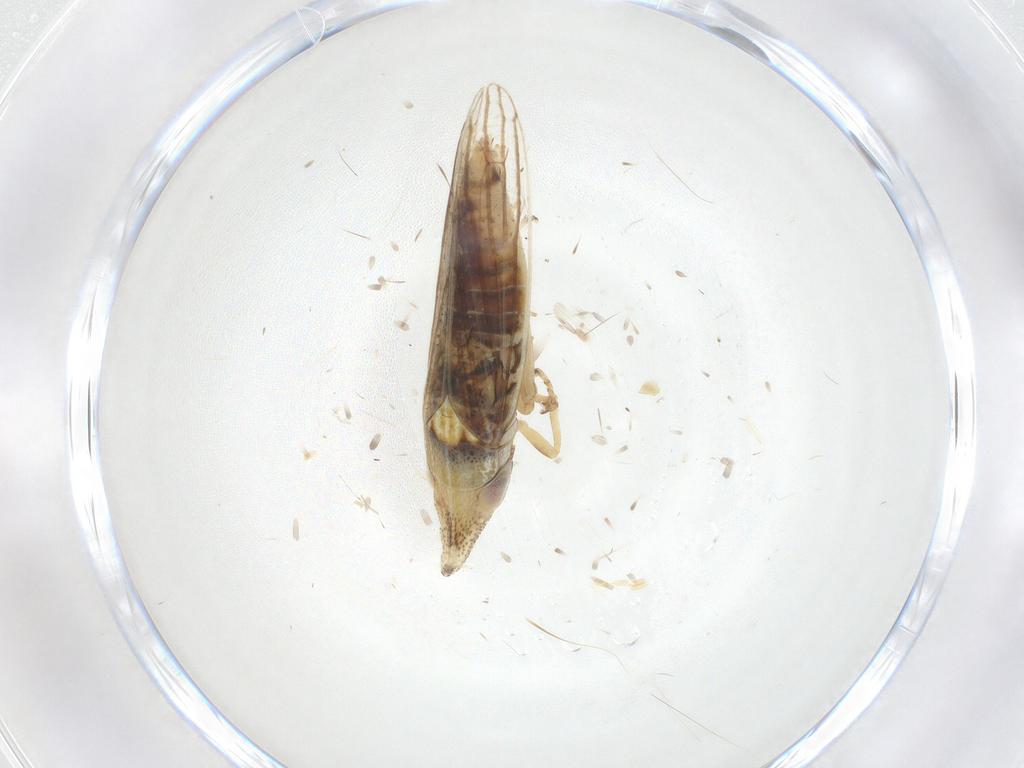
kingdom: Animalia
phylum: Arthropoda
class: Insecta
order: Hemiptera
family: Cicadellidae
